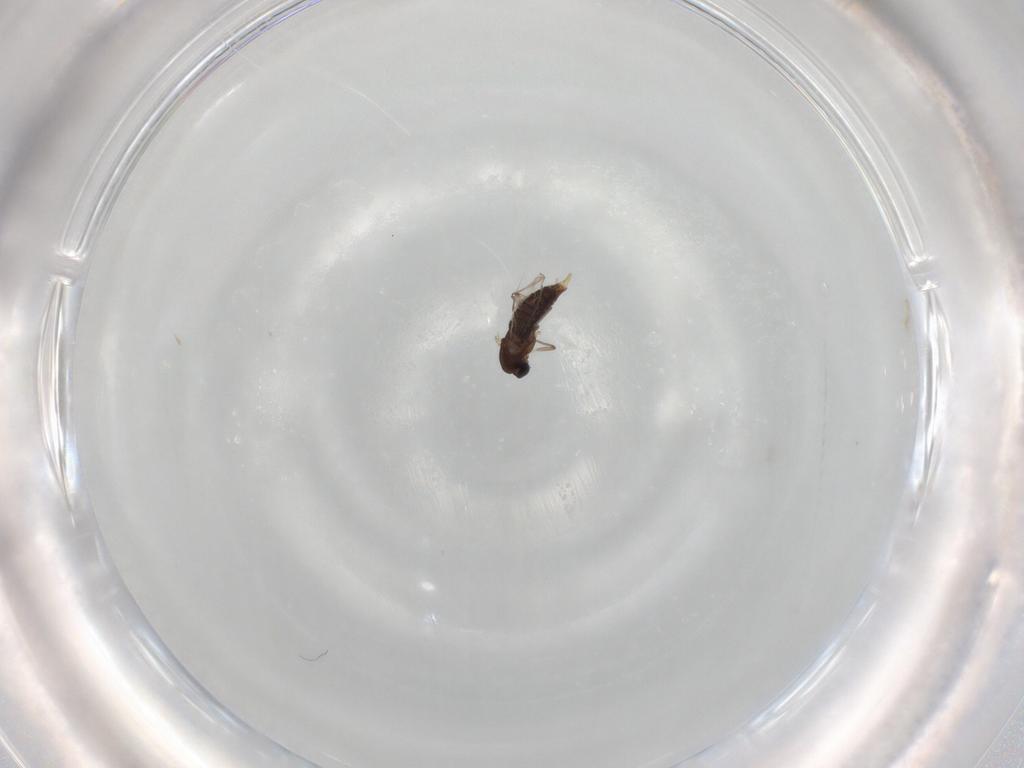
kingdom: Animalia
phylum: Arthropoda
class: Insecta
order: Diptera
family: Chironomidae
